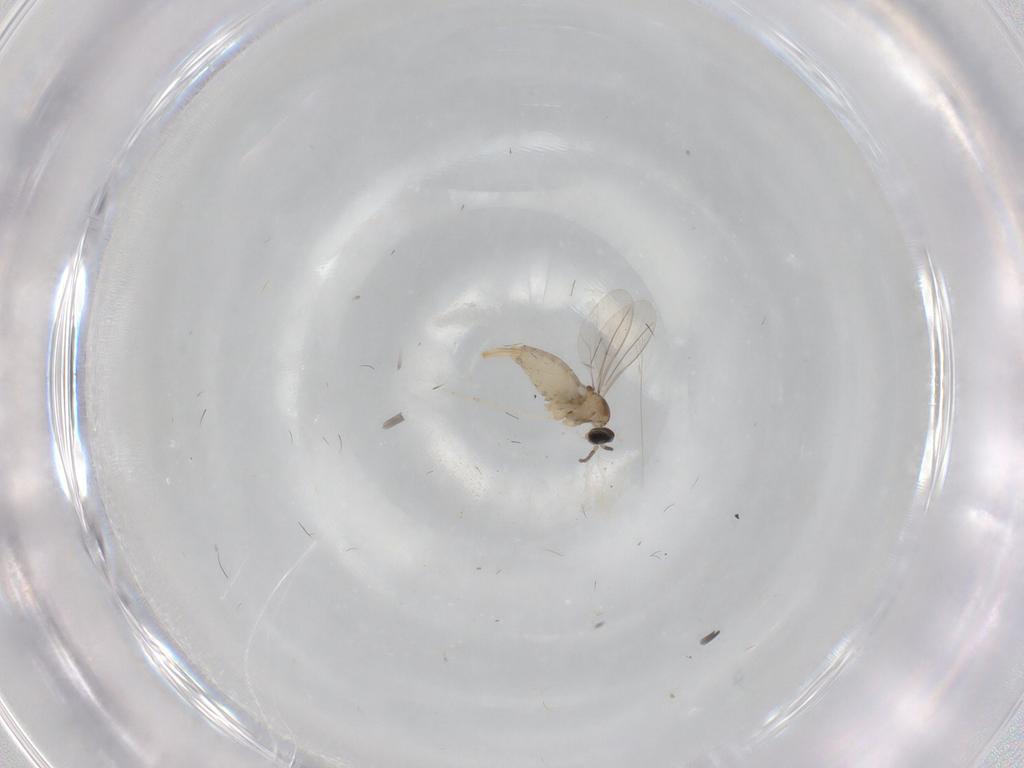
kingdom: Animalia
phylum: Arthropoda
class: Insecta
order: Diptera
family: Cecidomyiidae
